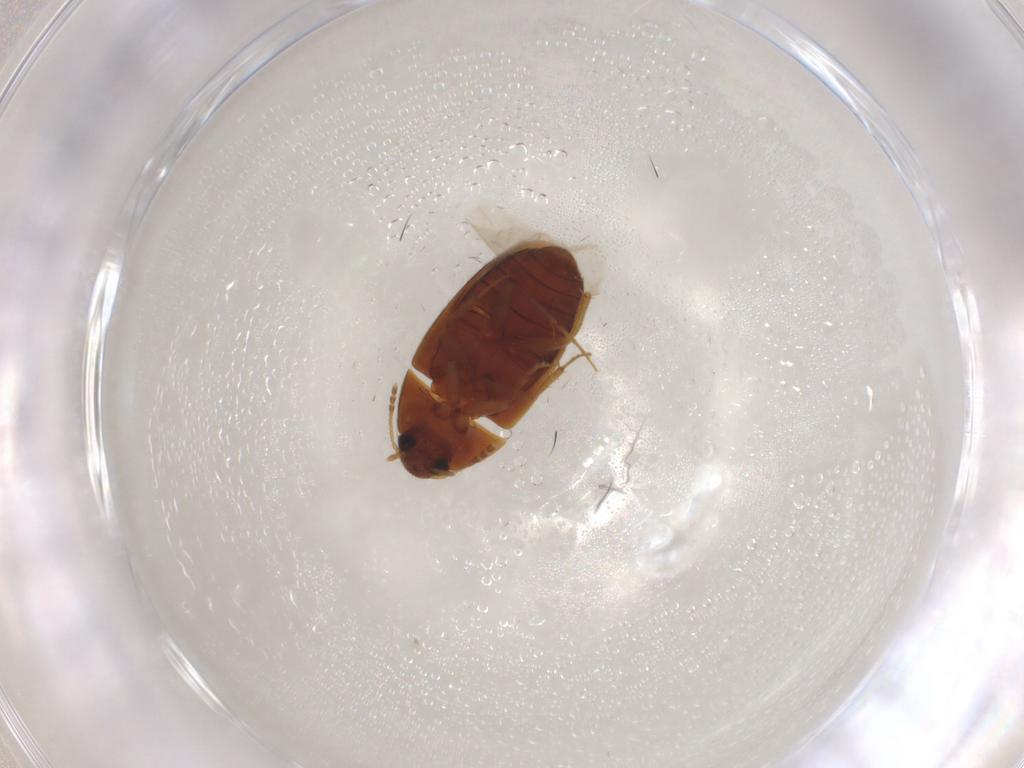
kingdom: Animalia
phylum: Arthropoda
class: Insecta
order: Coleoptera
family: Mycetophagidae
